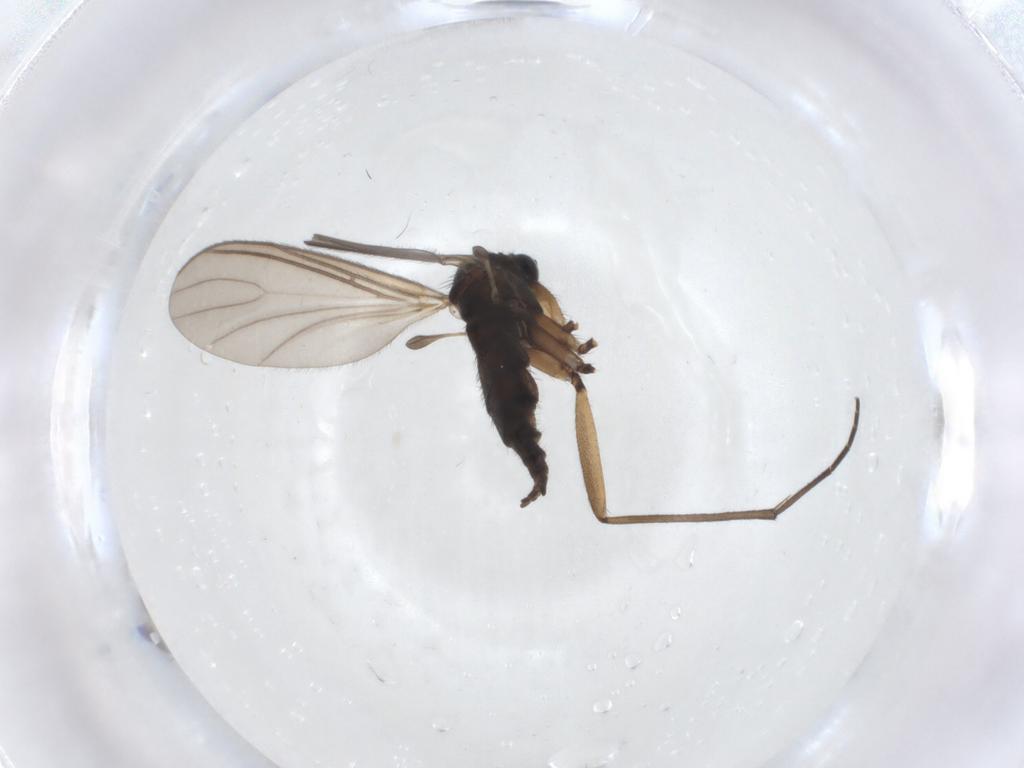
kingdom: Animalia
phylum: Arthropoda
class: Insecta
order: Diptera
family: Sciaridae
